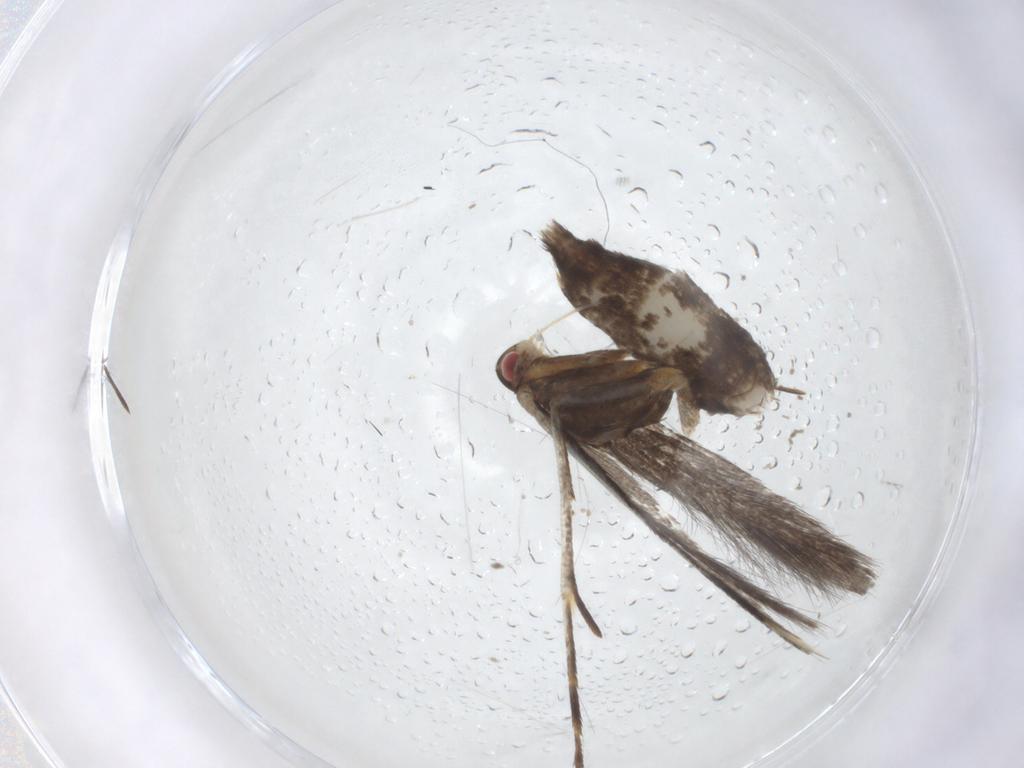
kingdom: Animalia
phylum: Arthropoda
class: Insecta
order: Lepidoptera
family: Cosmopterigidae
